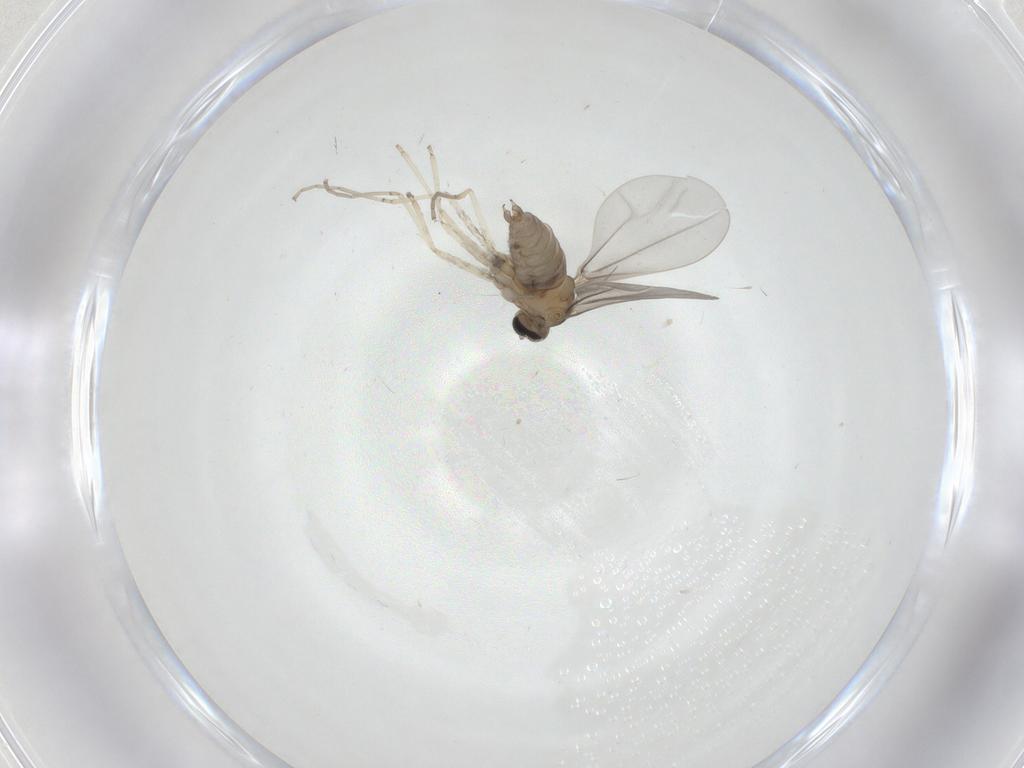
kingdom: Animalia
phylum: Arthropoda
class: Insecta
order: Diptera
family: Cecidomyiidae
